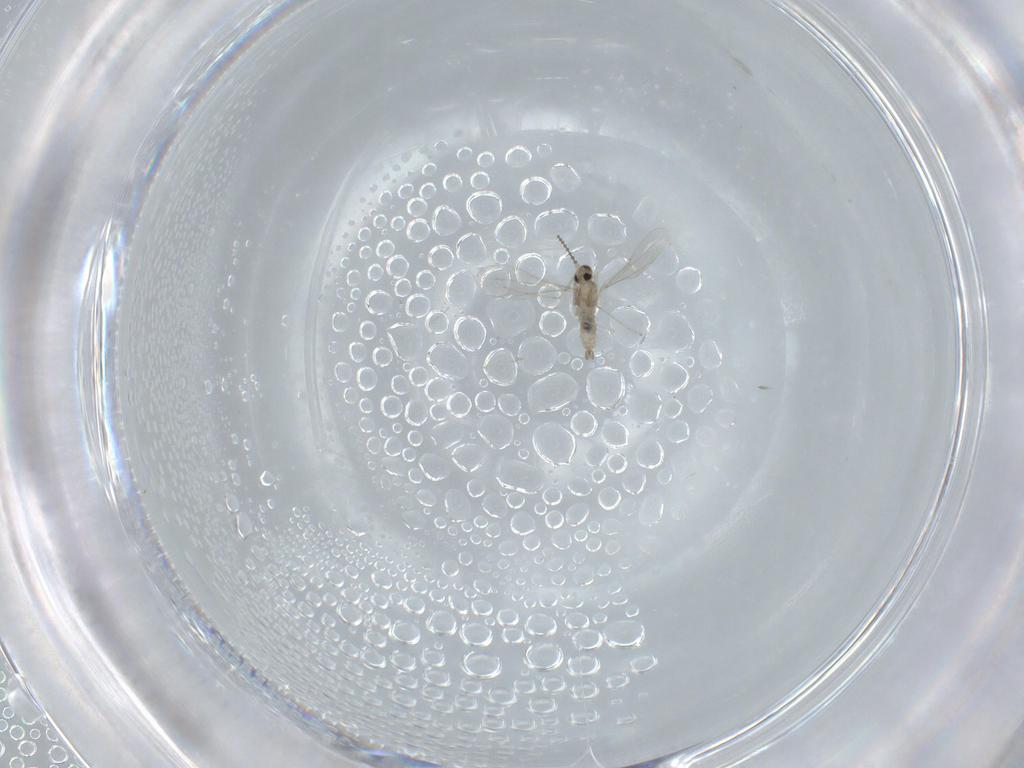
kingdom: Animalia
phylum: Arthropoda
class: Insecta
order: Diptera
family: Cecidomyiidae
